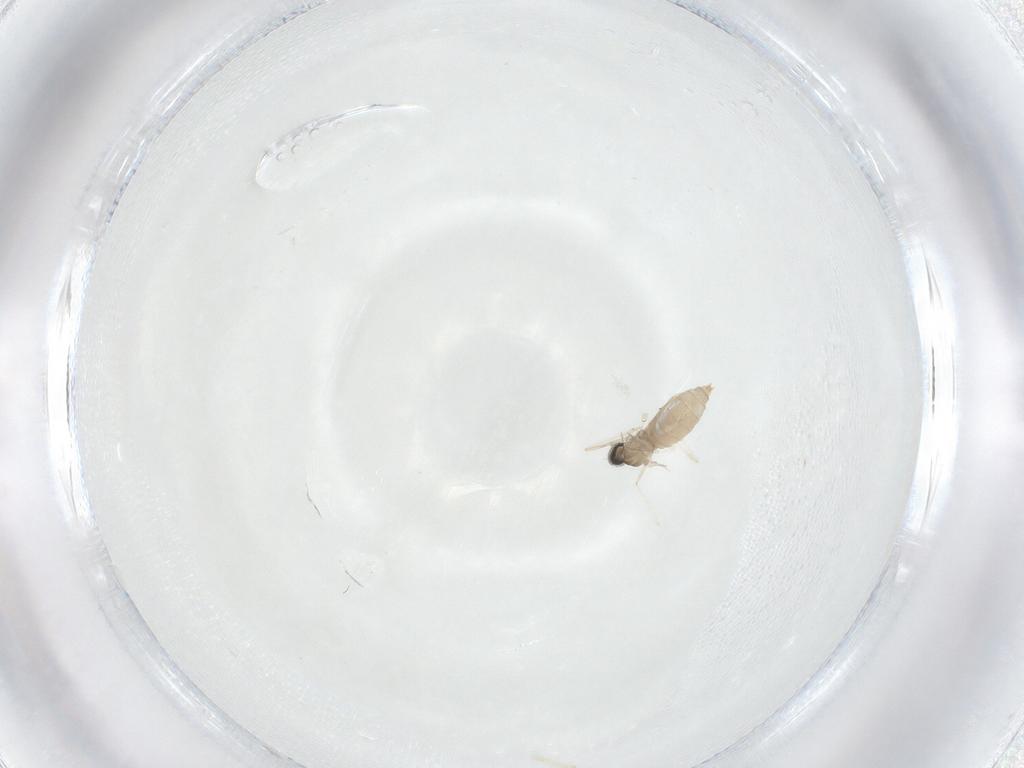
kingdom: Animalia
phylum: Arthropoda
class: Insecta
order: Diptera
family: Cecidomyiidae
